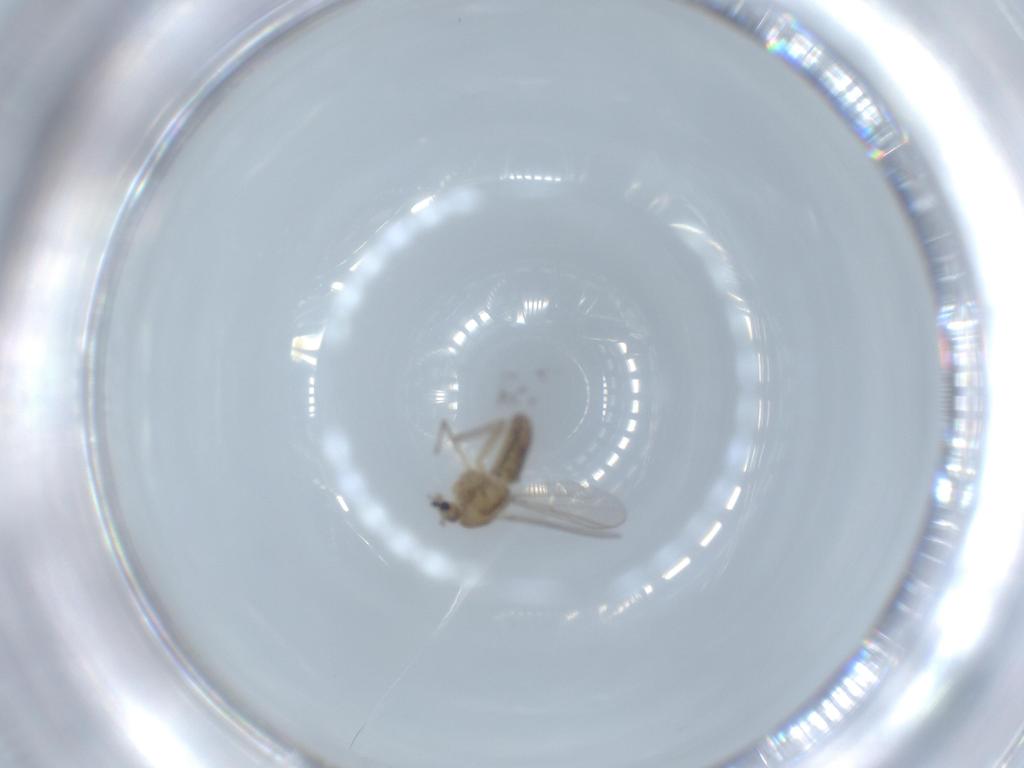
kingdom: Animalia
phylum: Arthropoda
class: Insecta
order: Diptera
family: Chironomidae
